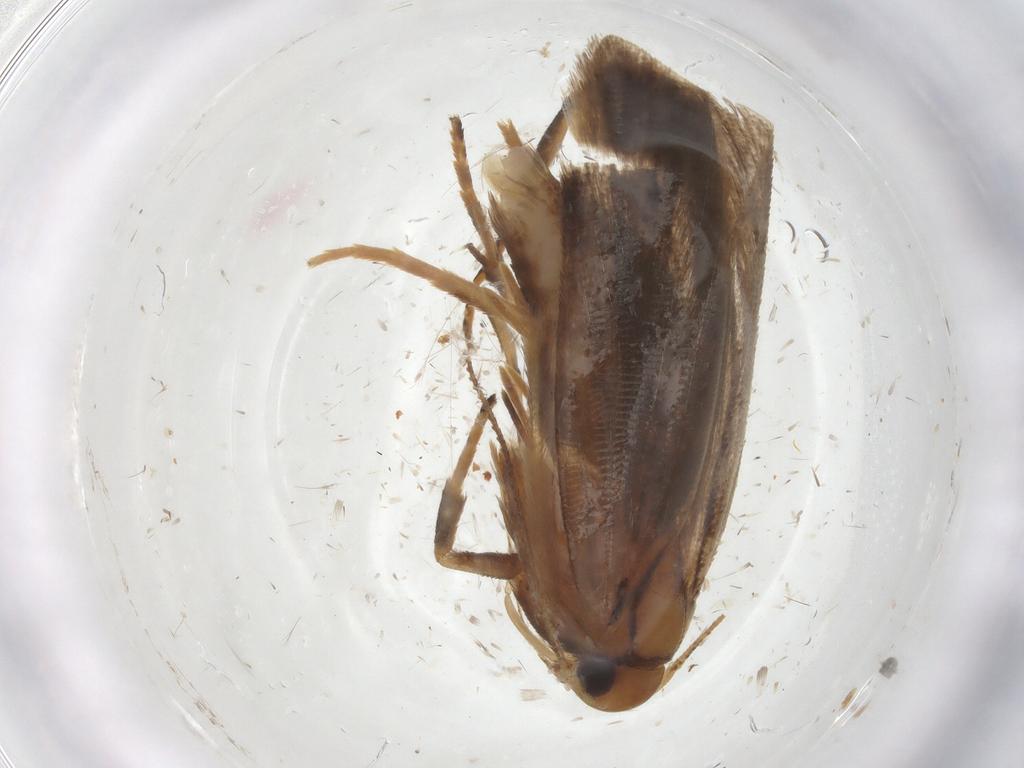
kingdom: Animalia
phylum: Arthropoda
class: Insecta
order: Lepidoptera
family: Gelechiidae
